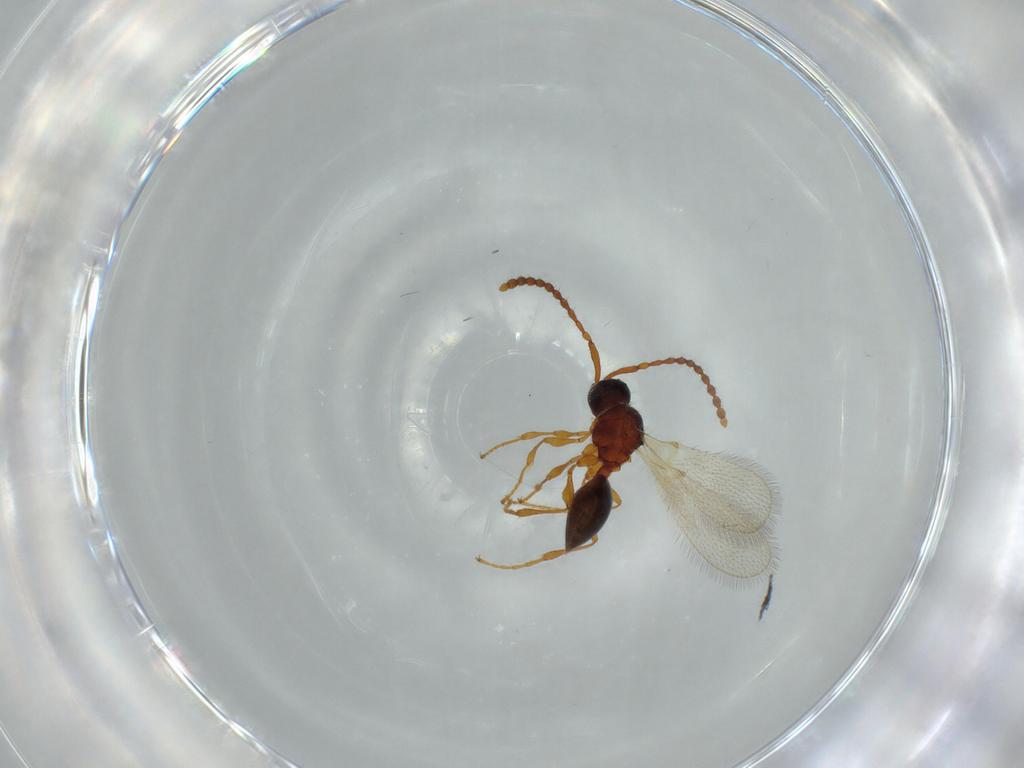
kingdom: Animalia
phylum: Arthropoda
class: Insecta
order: Hymenoptera
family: Diapriidae
